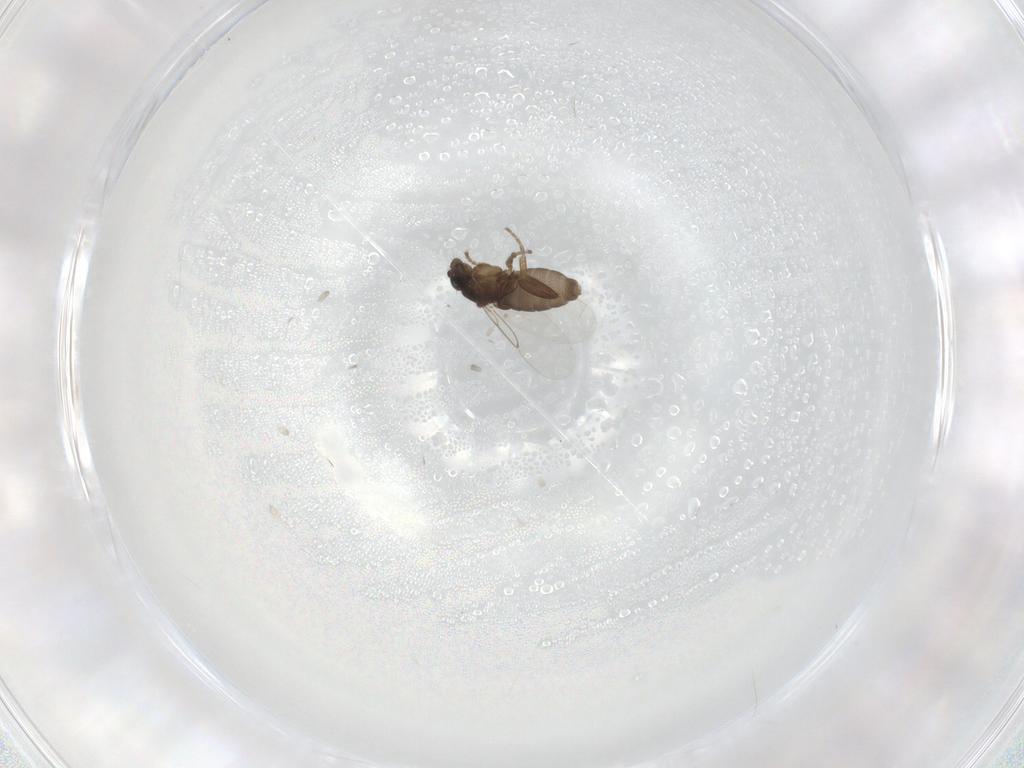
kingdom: Animalia
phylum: Arthropoda
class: Insecta
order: Diptera
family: Phoridae
